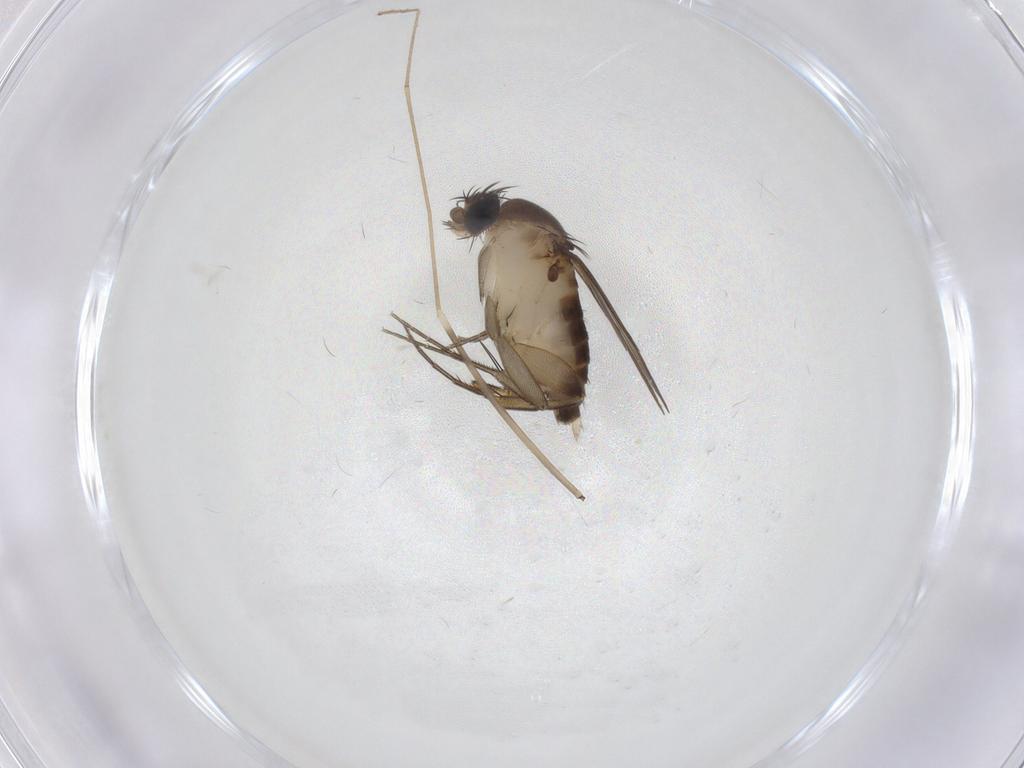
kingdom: Animalia
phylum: Arthropoda
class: Insecta
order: Diptera
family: Phoridae
